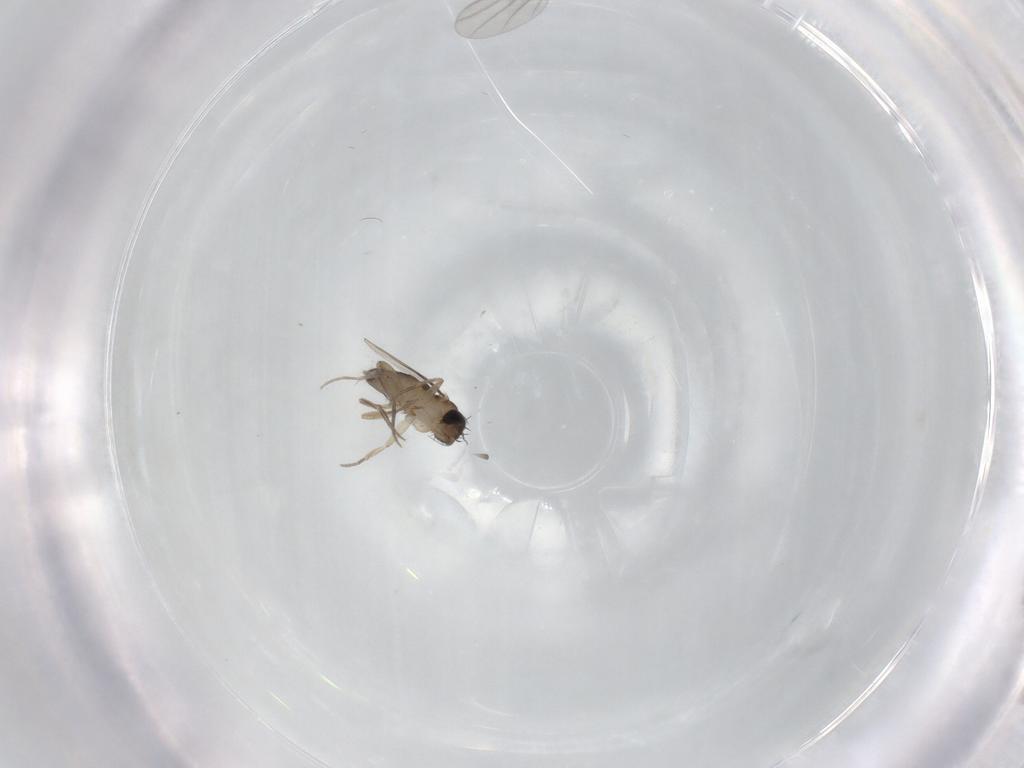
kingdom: Animalia
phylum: Arthropoda
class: Insecta
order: Diptera
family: Phoridae
